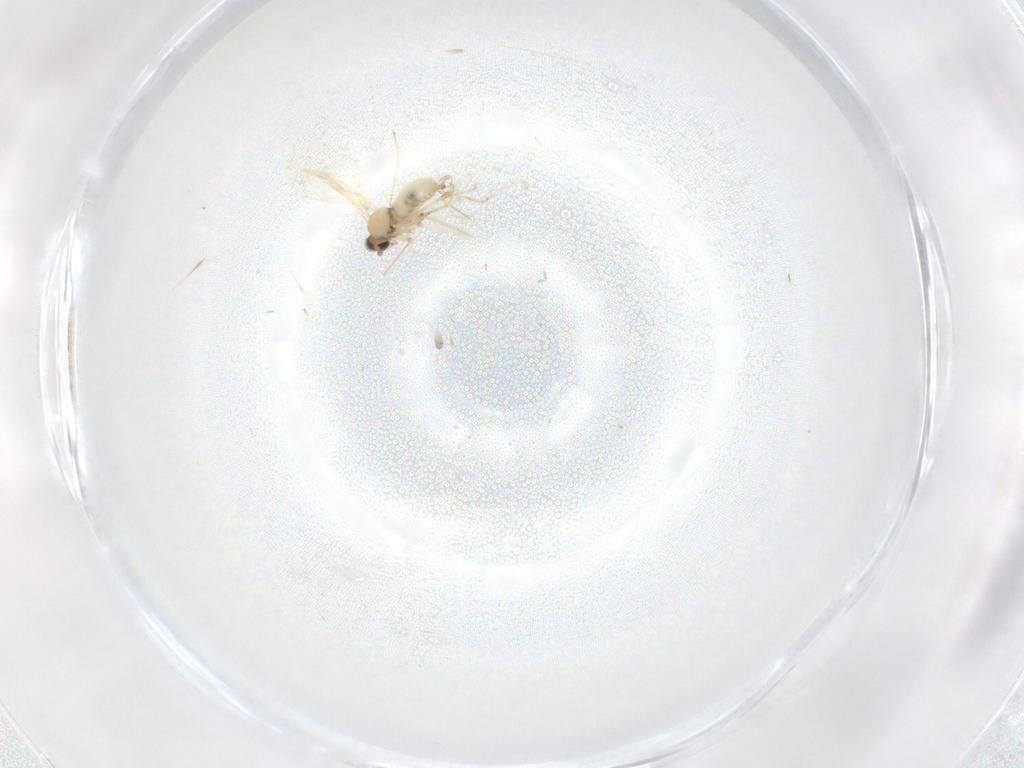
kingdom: Animalia
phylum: Arthropoda
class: Insecta
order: Diptera
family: Cecidomyiidae
